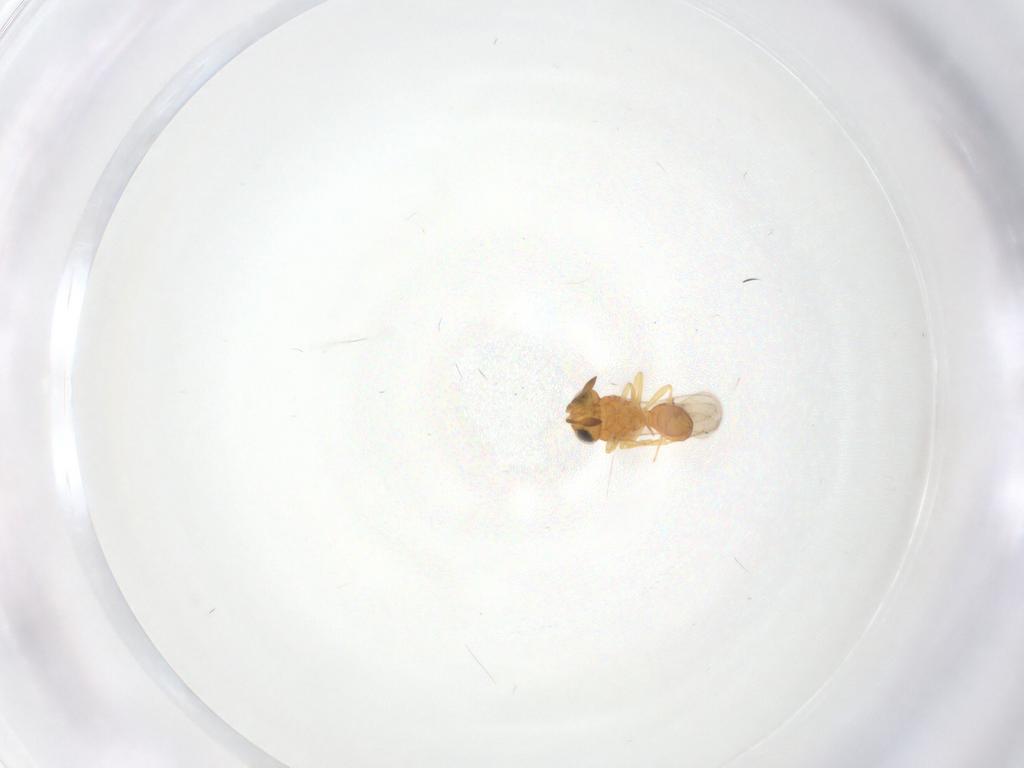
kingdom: Animalia
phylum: Arthropoda
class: Insecta
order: Hymenoptera
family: Scelionidae
